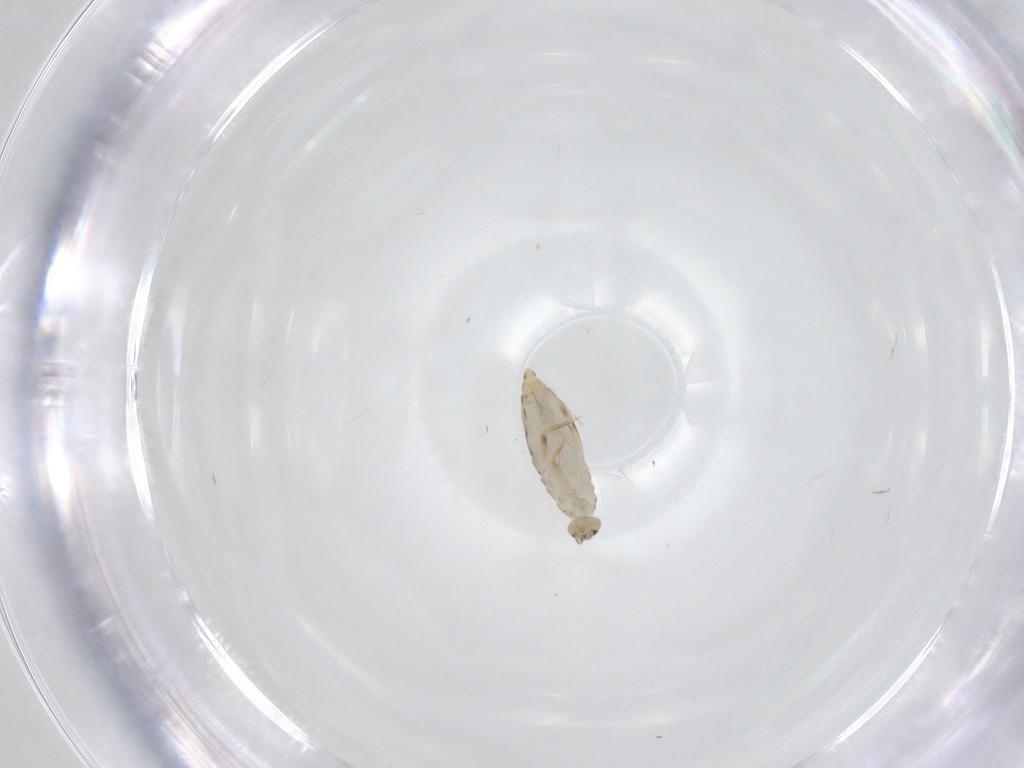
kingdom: Animalia
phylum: Arthropoda
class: Collembola
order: Entomobryomorpha
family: Entomobryidae
